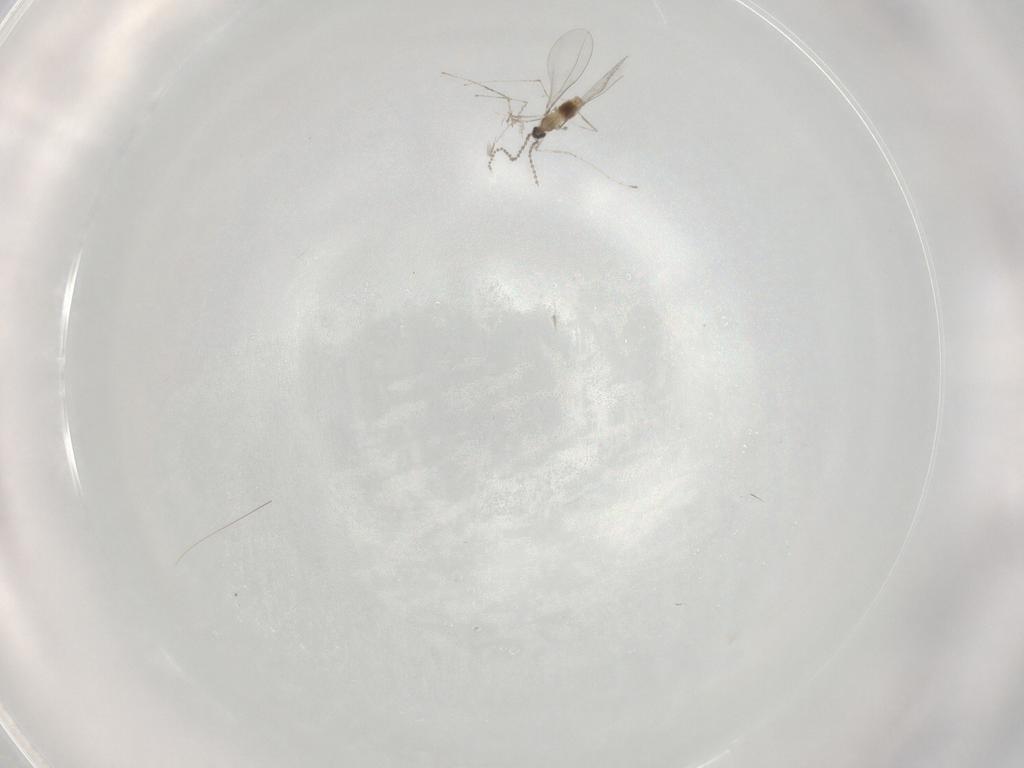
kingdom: Animalia
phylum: Arthropoda
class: Insecta
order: Diptera
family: Cecidomyiidae
